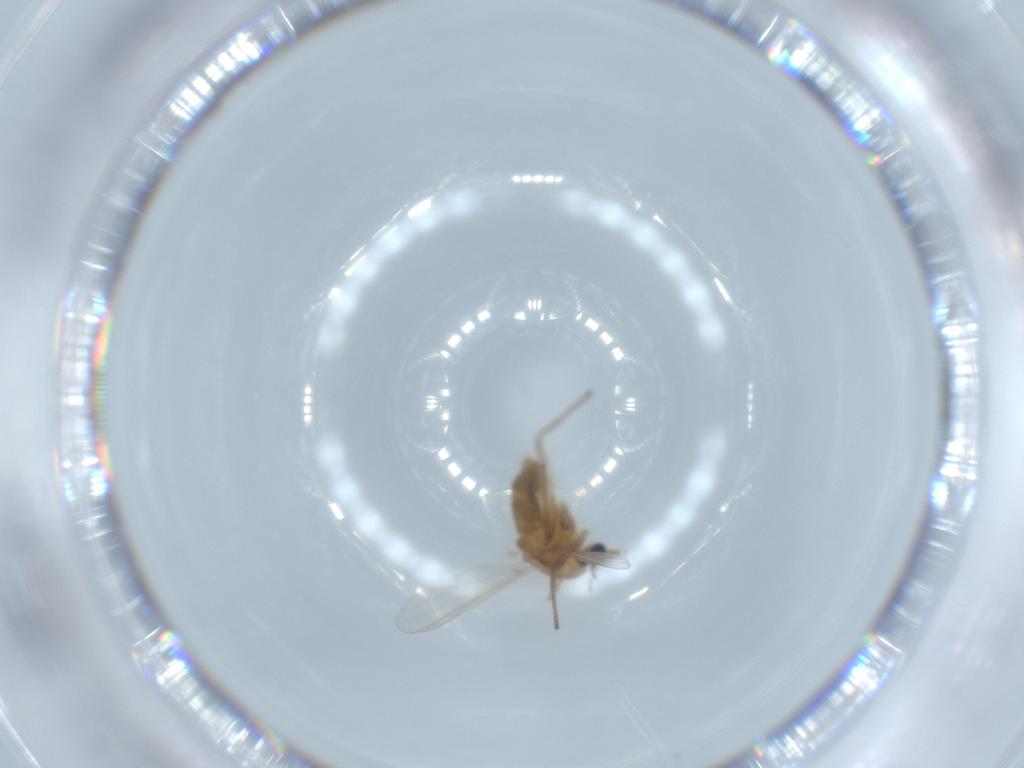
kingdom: Animalia
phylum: Arthropoda
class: Insecta
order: Diptera
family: Chironomidae
